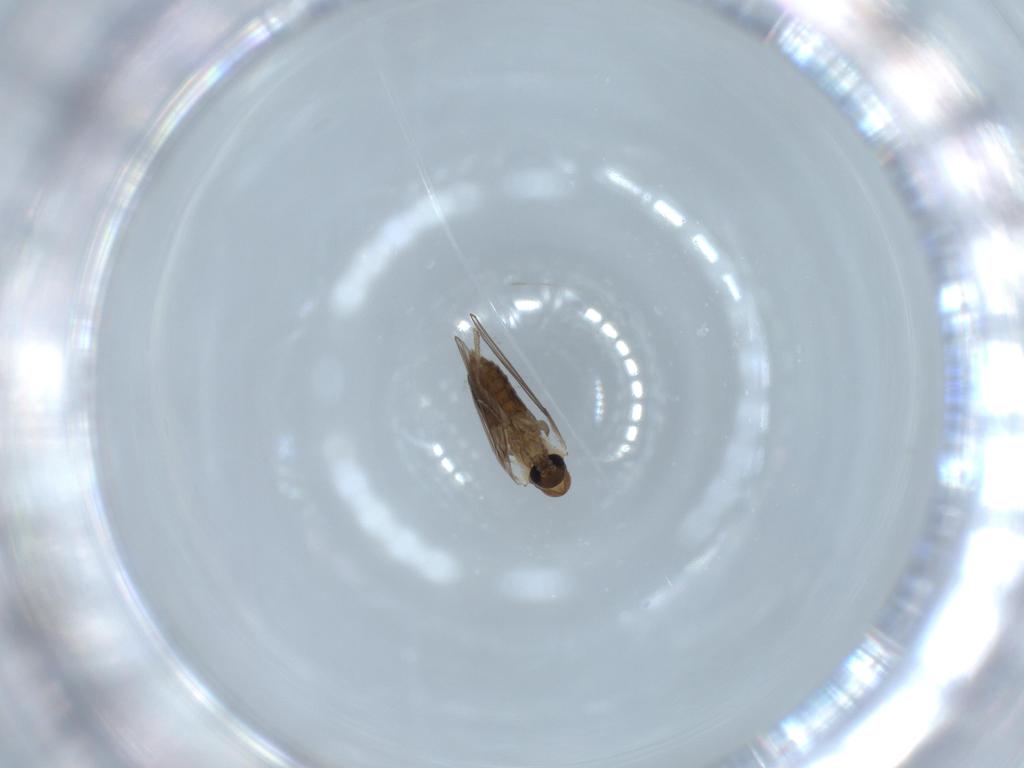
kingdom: Animalia
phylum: Arthropoda
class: Insecta
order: Diptera
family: Psychodidae
